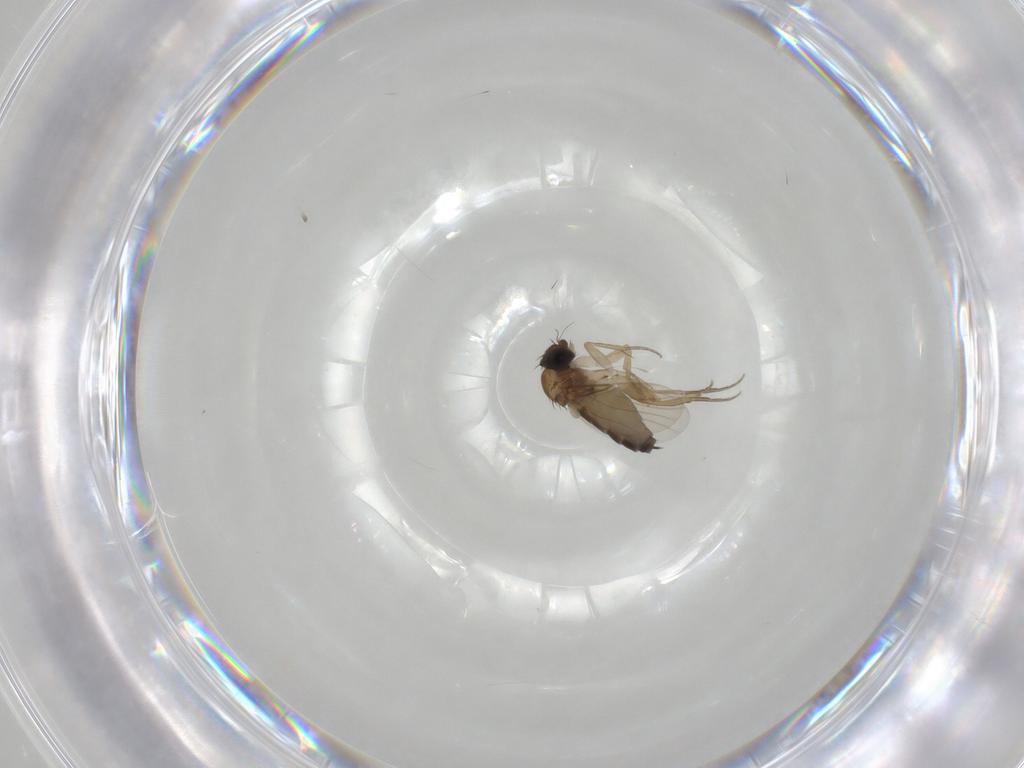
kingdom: Animalia
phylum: Arthropoda
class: Insecta
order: Diptera
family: Phoridae
